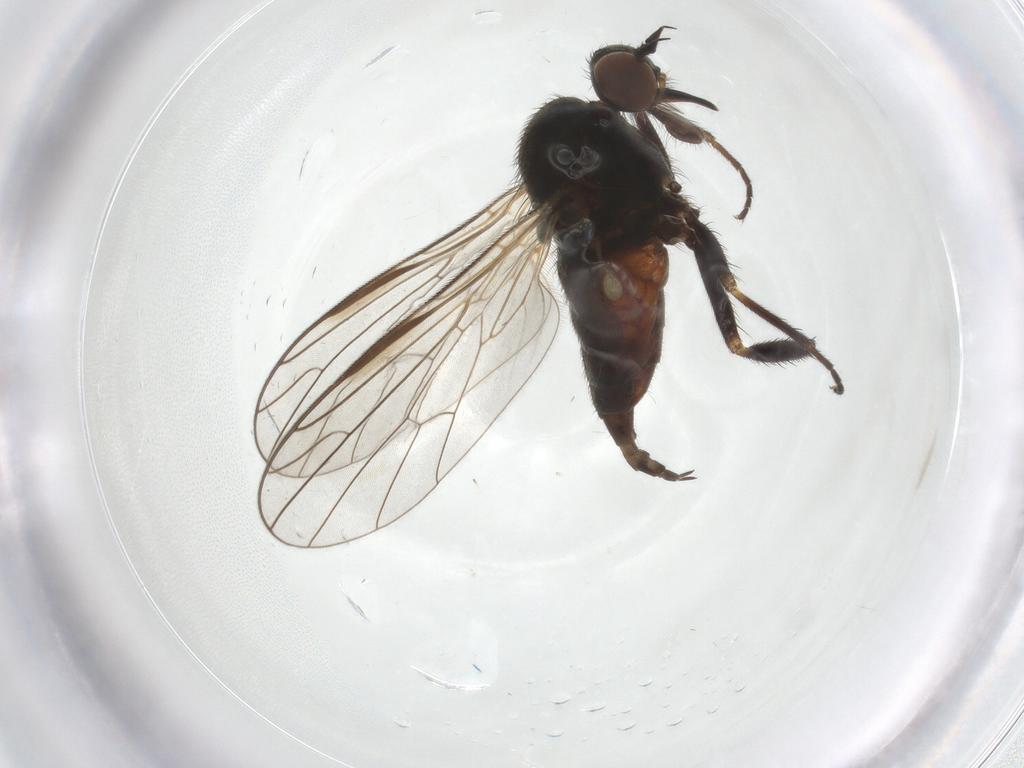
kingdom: Animalia
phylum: Arthropoda
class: Insecta
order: Diptera
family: Empididae
